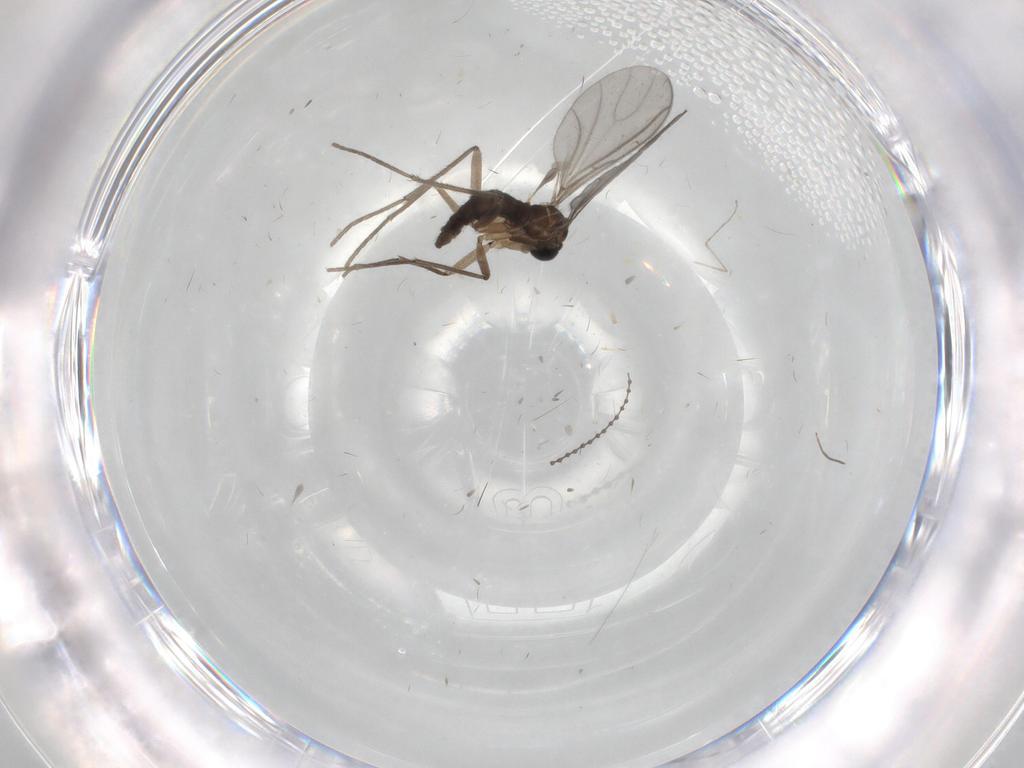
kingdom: Animalia
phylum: Arthropoda
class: Insecta
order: Diptera
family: Sciaridae
